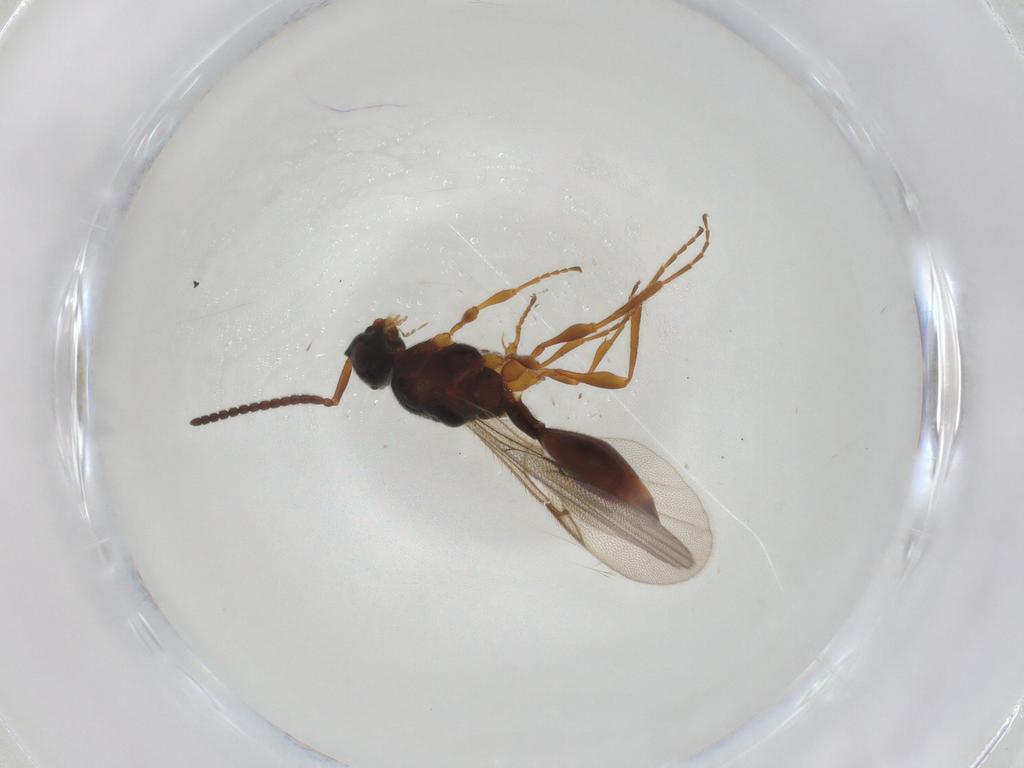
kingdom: Animalia
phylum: Arthropoda
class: Insecta
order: Hymenoptera
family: Diapriidae
